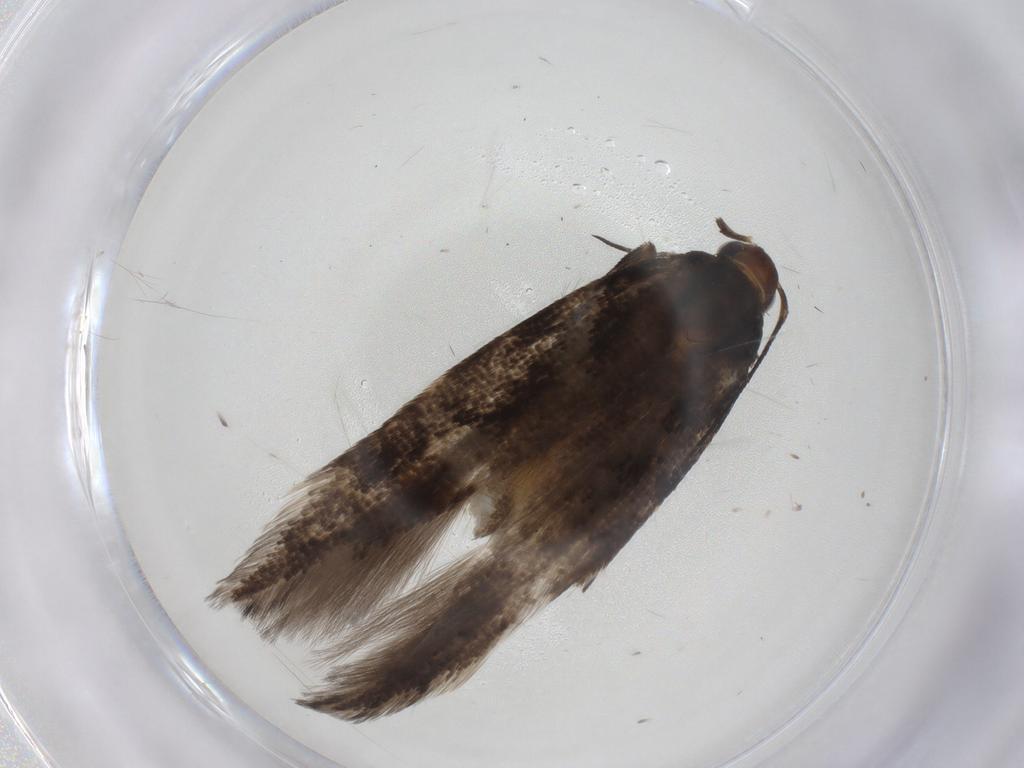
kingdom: Animalia
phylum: Arthropoda
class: Insecta
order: Lepidoptera
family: Gelechiidae
